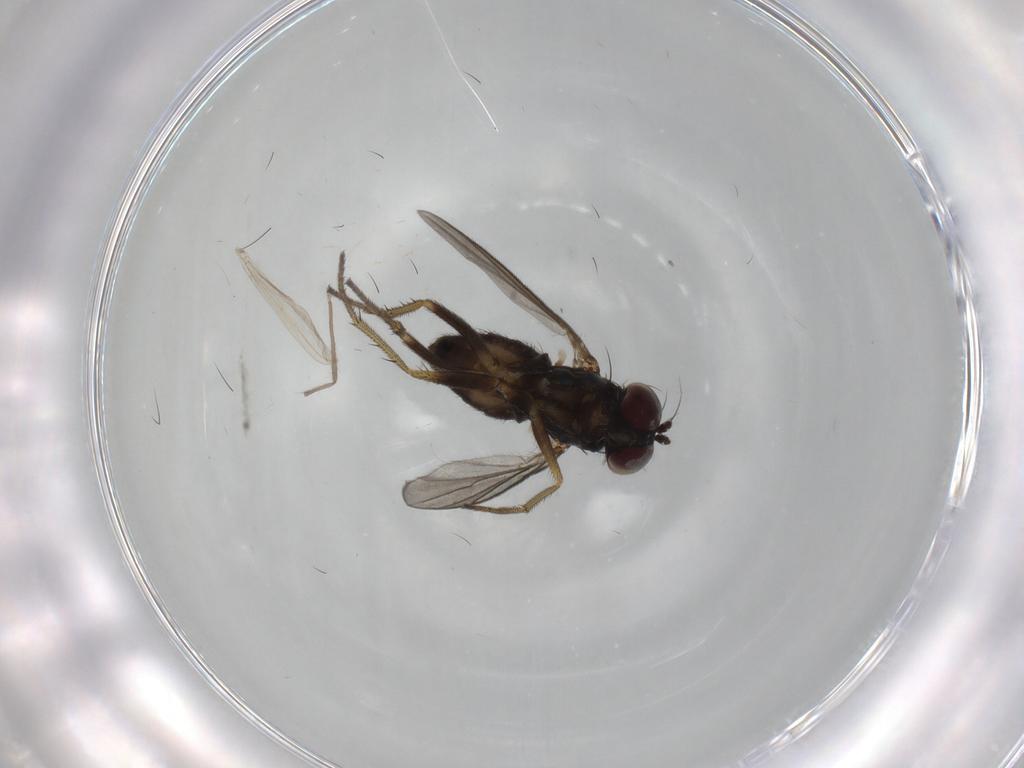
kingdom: Animalia
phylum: Arthropoda
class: Insecta
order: Diptera
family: Dolichopodidae
